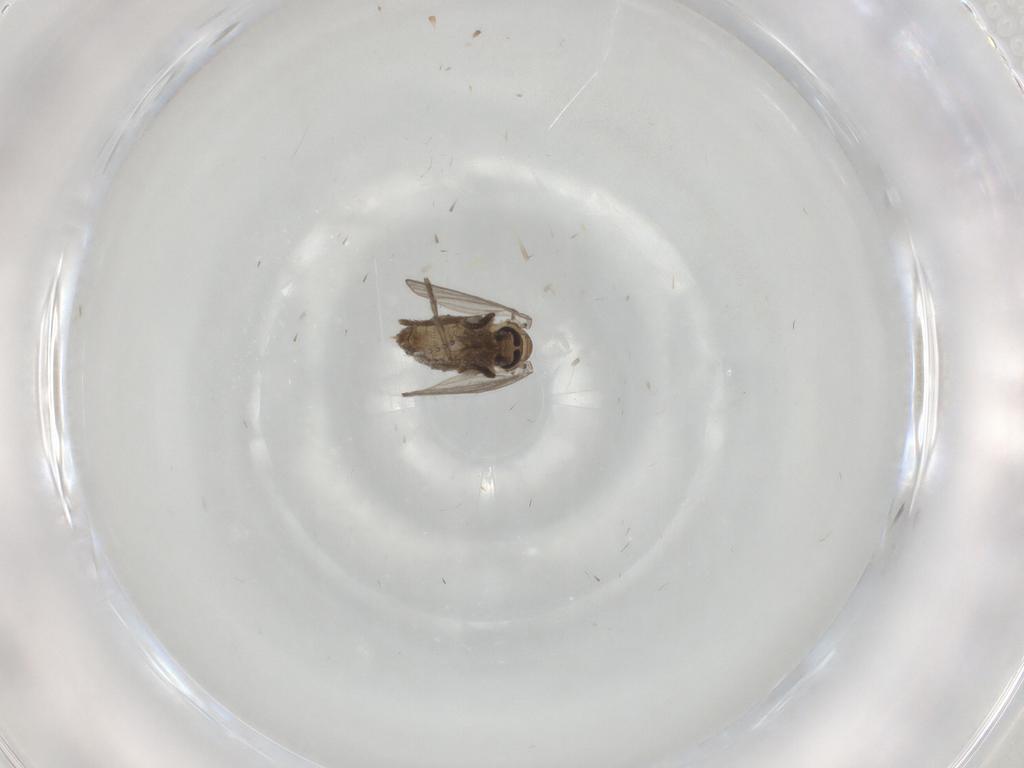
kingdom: Animalia
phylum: Arthropoda
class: Insecta
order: Diptera
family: Psychodidae
